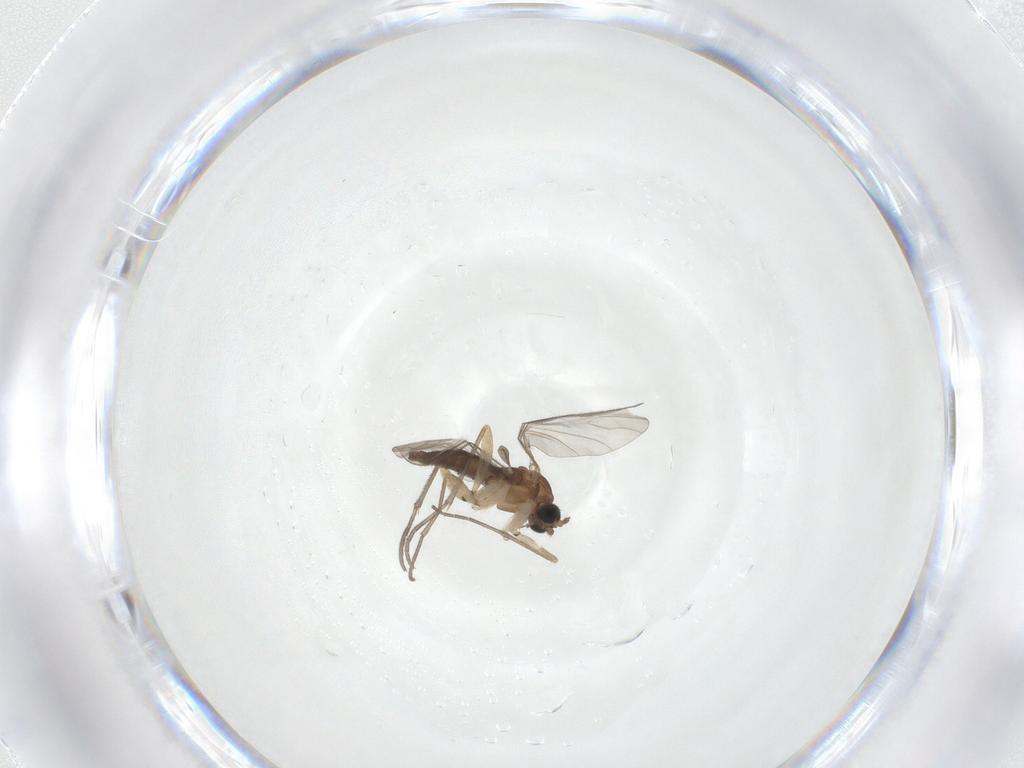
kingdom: Animalia
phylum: Arthropoda
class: Insecta
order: Diptera
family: Sciaridae
